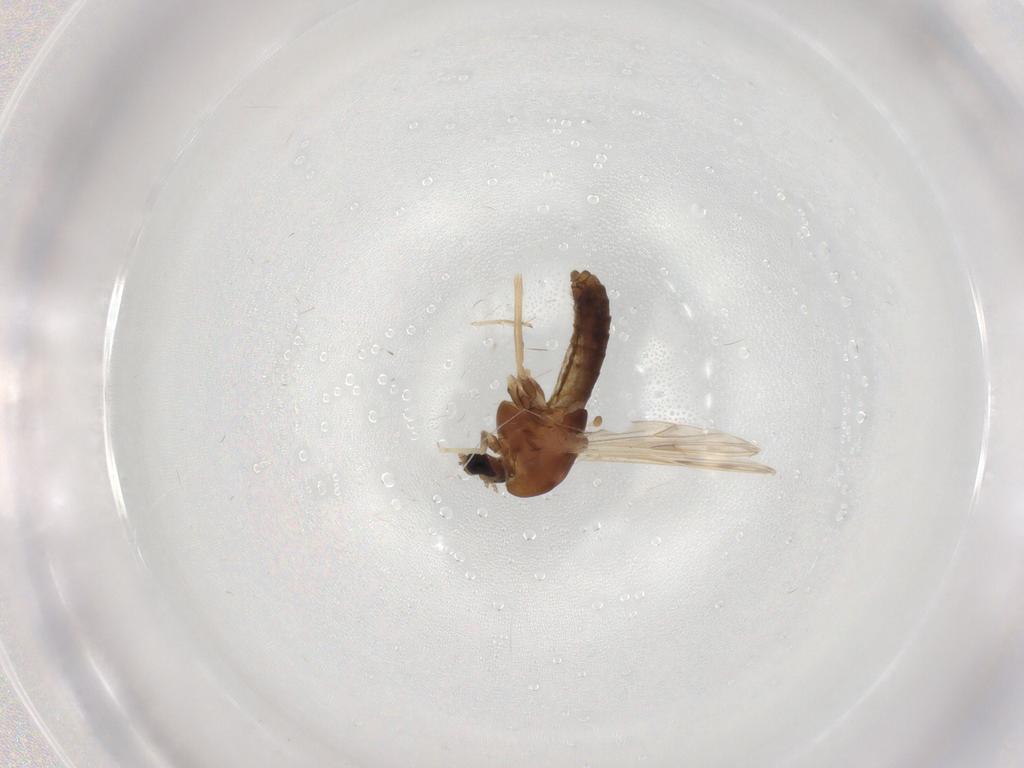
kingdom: Animalia
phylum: Arthropoda
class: Insecta
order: Diptera
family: Chironomidae
